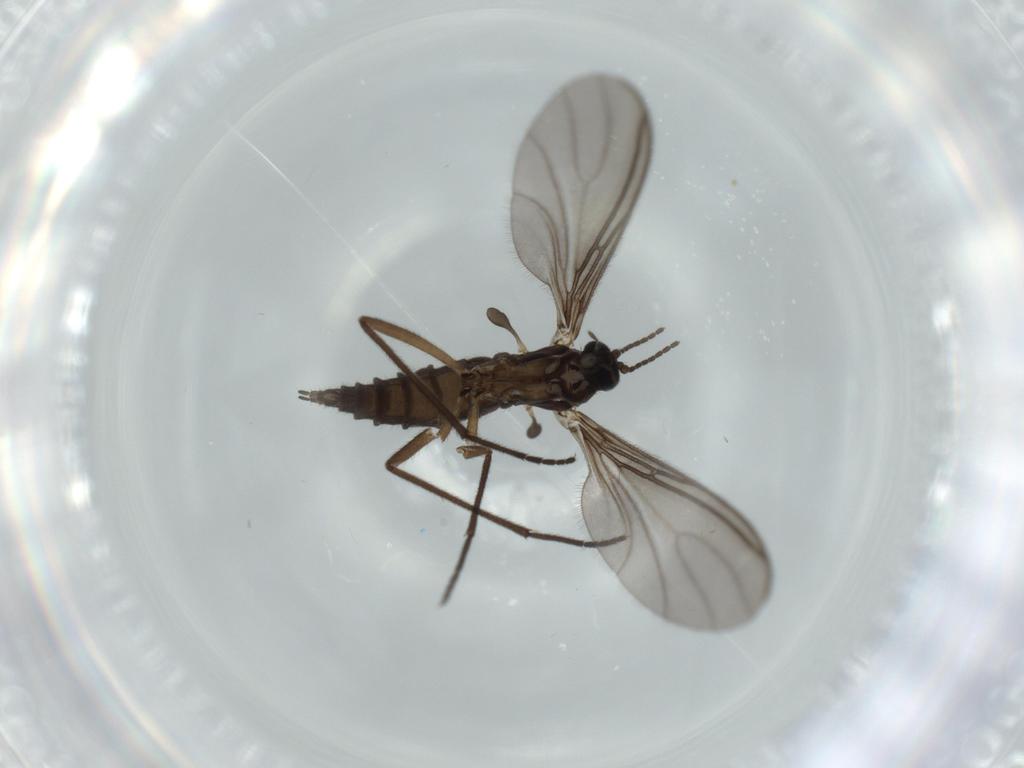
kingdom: Animalia
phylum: Arthropoda
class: Insecta
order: Diptera
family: Sciaridae
